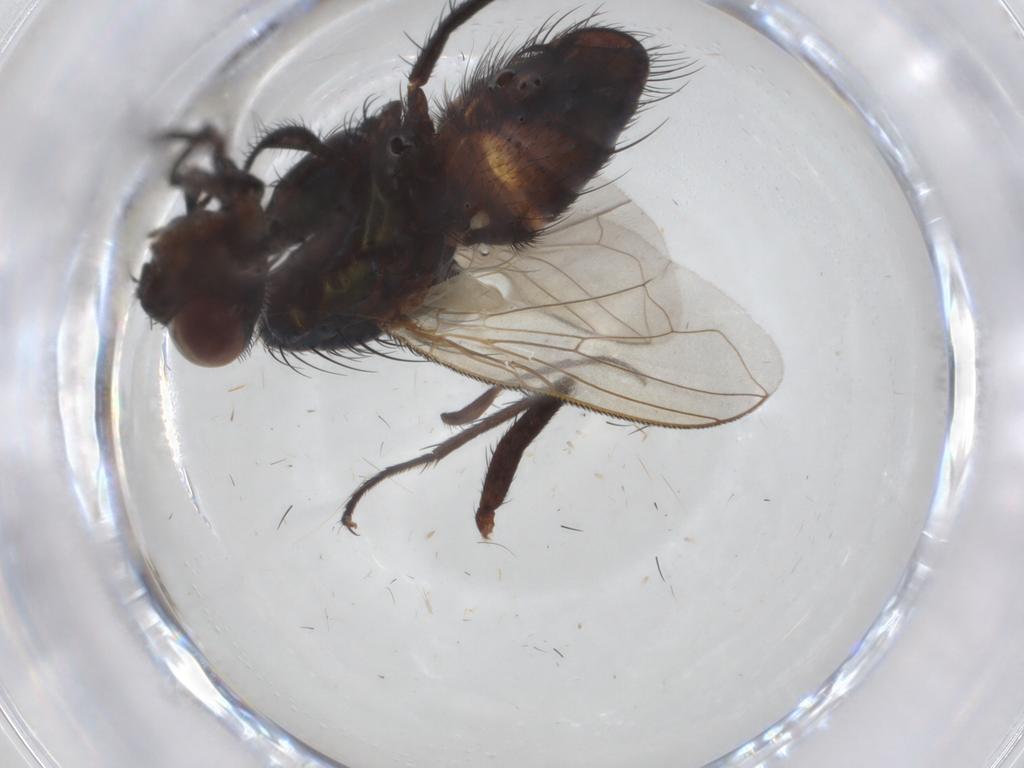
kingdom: Animalia
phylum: Arthropoda
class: Insecta
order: Diptera
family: Calliphoridae
